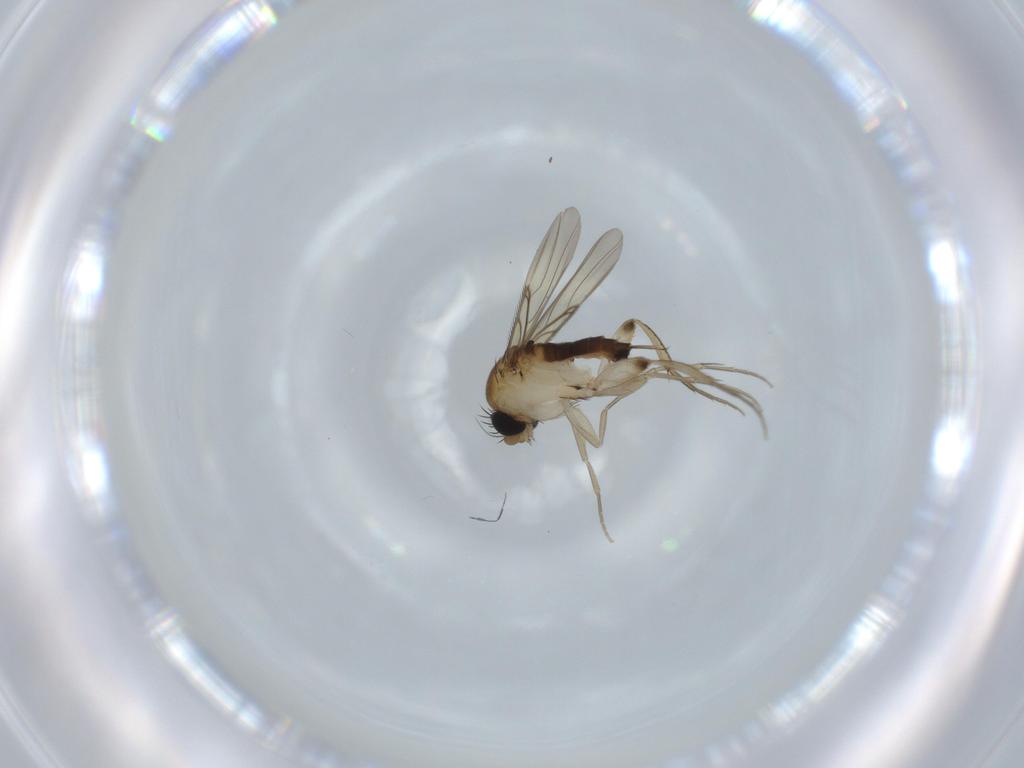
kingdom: Animalia
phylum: Arthropoda
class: Insecta
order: Diptera
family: Phoridae
